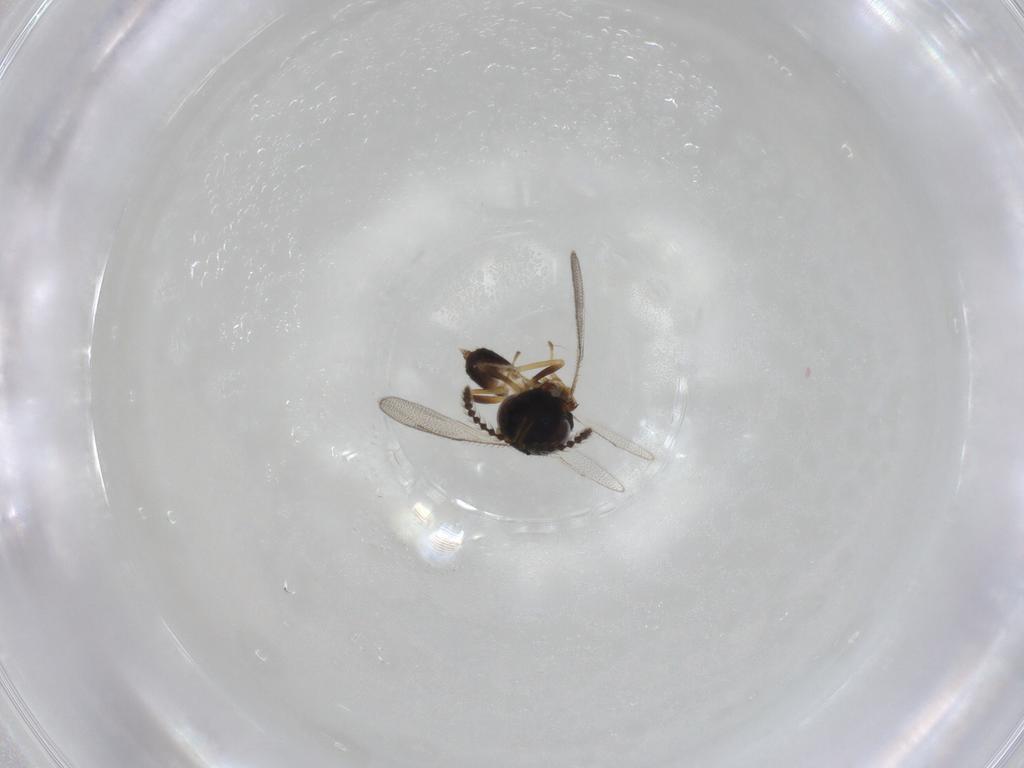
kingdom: Animalia
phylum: Arthropoda
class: Insecta
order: Hymenoptera
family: Pteromalidae
